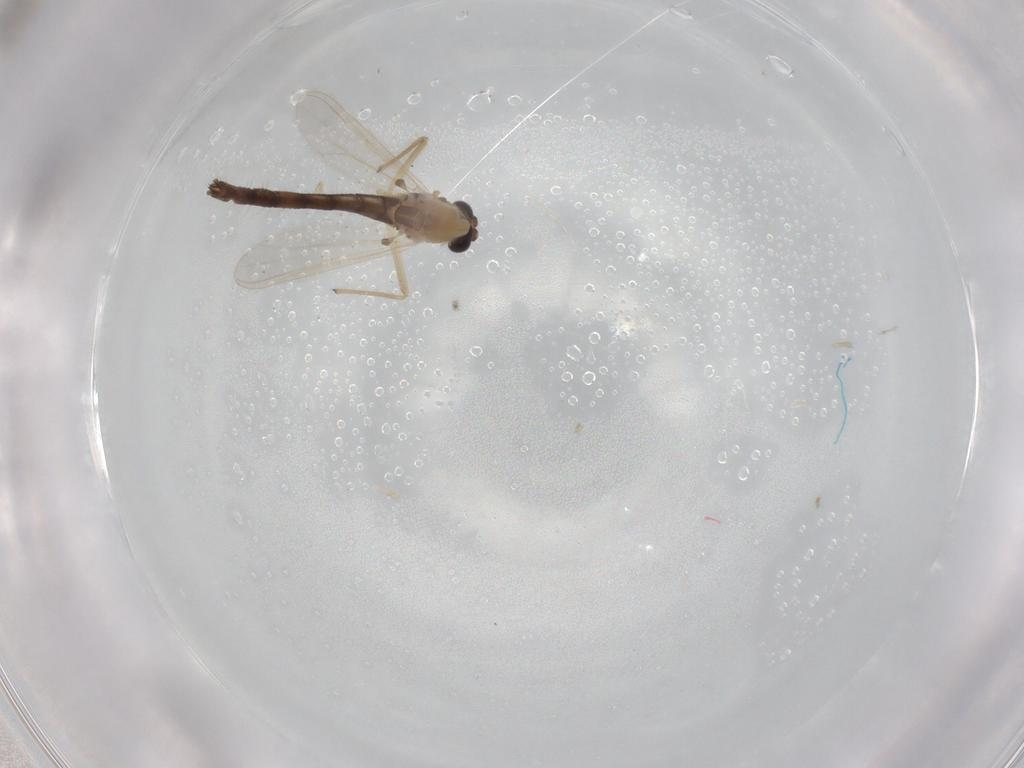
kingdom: Animalia
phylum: Arthropoda
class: Insecta
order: Diptera
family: Chironomidae
